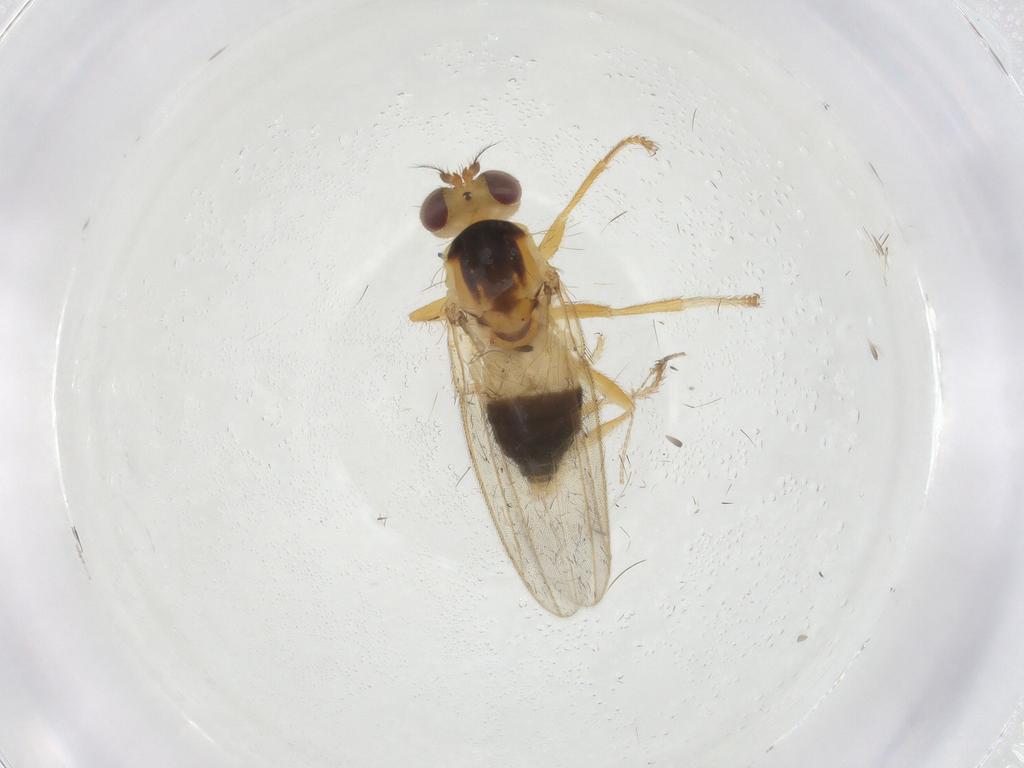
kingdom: Animalia
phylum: Arthropoda
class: Insecta
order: Diptera
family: Periscelididae
